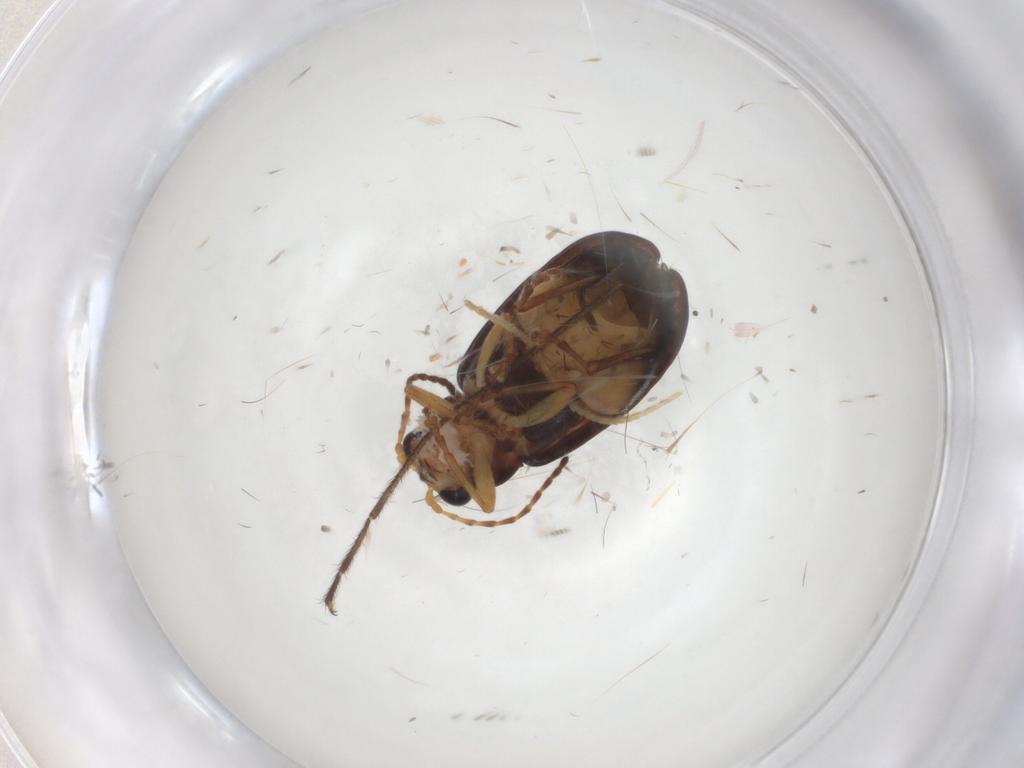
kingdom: Animalia
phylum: Arthropoda
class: Insecta
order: Coleoptera
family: Chrysomelidae
